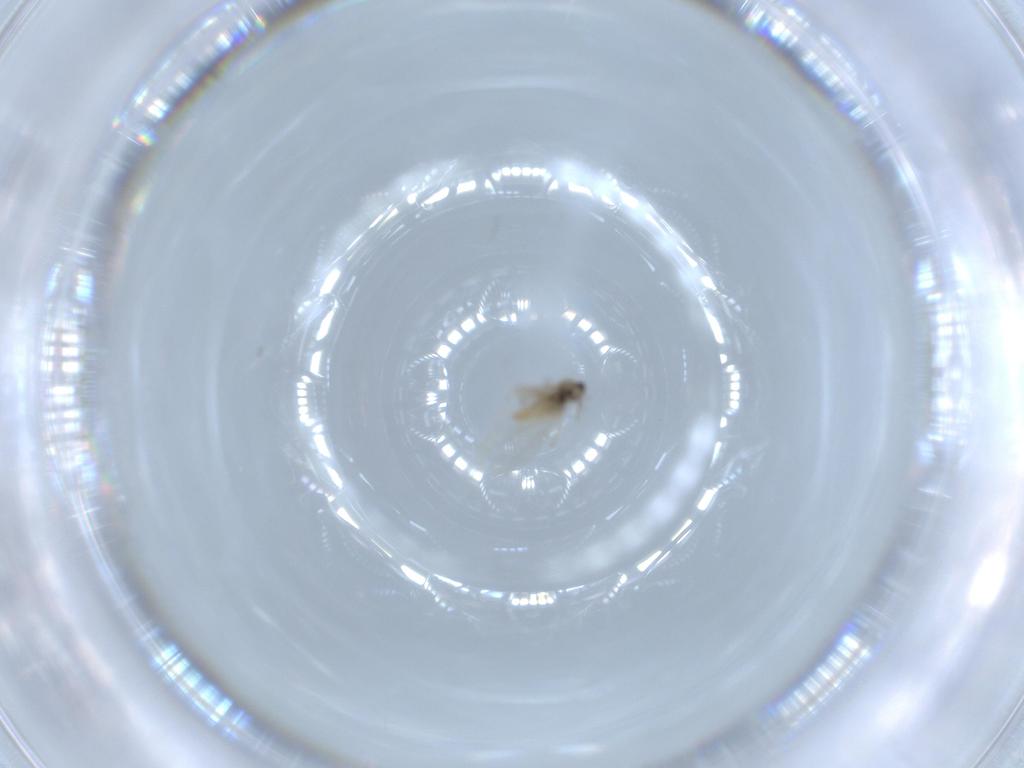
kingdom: Animalia
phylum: Arthropoda
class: Insecta
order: Diptera
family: Cecidomyiidae
